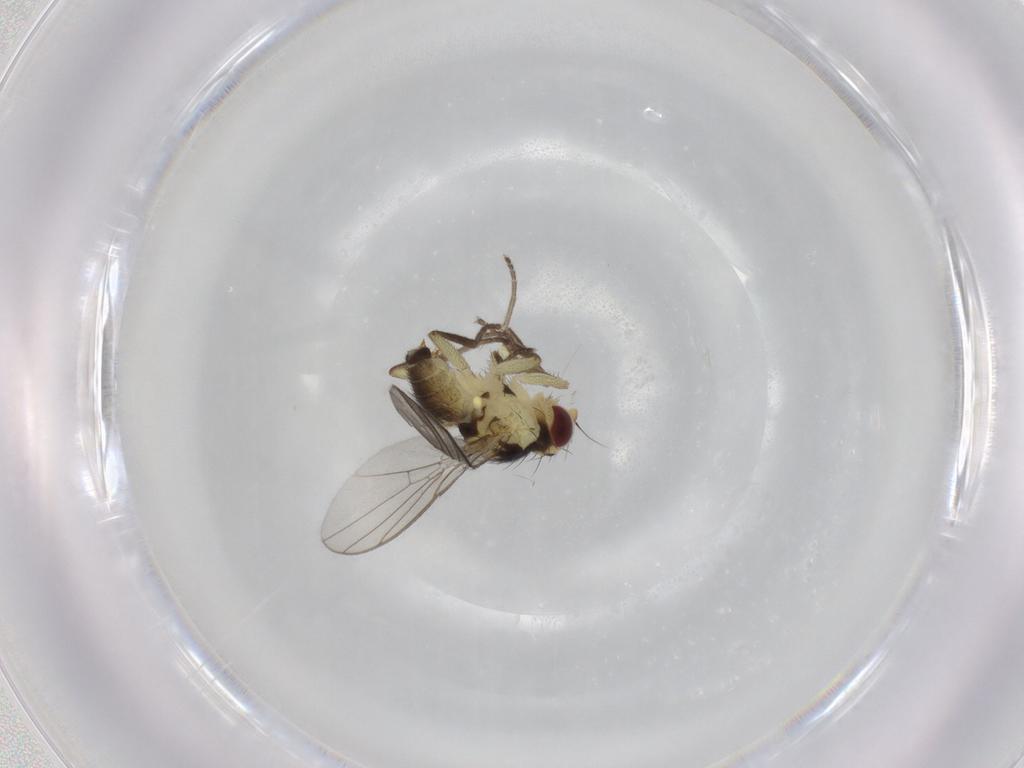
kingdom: Animalia
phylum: Arthropoda
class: Insecta
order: Diptera
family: Agromyzidae
